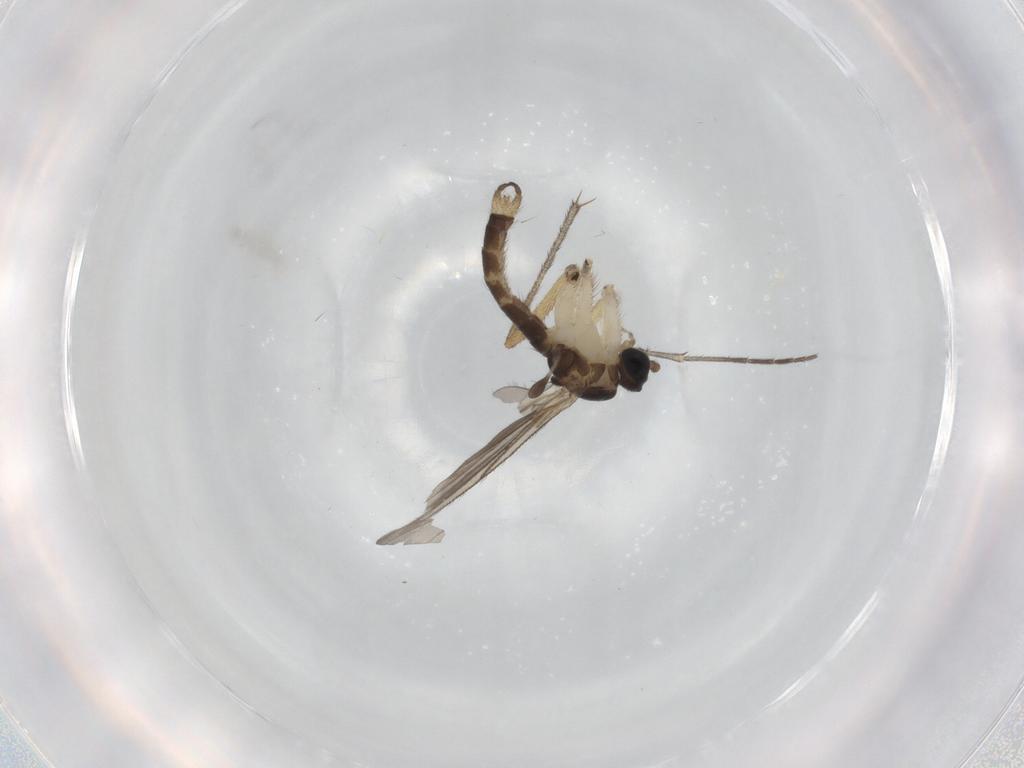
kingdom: Animalia
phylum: Arthropoda
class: Insecta
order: Diptera
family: Sciaridae
